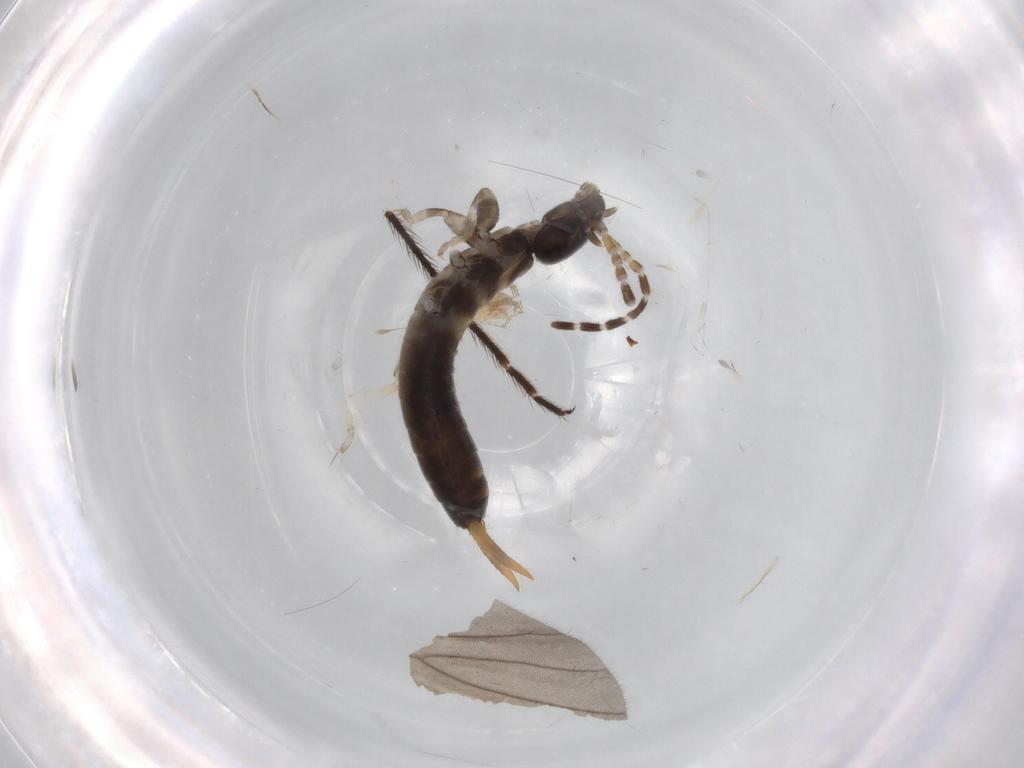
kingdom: Animalia
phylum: Arthropoda
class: Insecta
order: Dermaptera
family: Labiduridae
